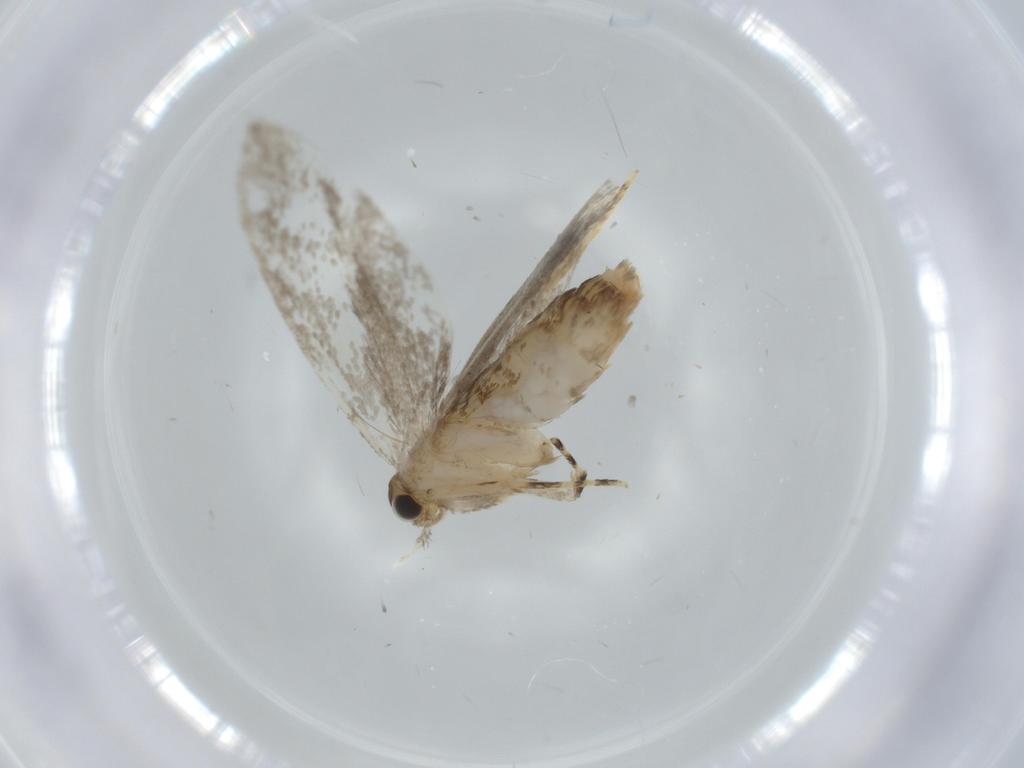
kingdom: Animalia
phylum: Arthropoda
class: Insecta
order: Lepidoptera
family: Tineidae
